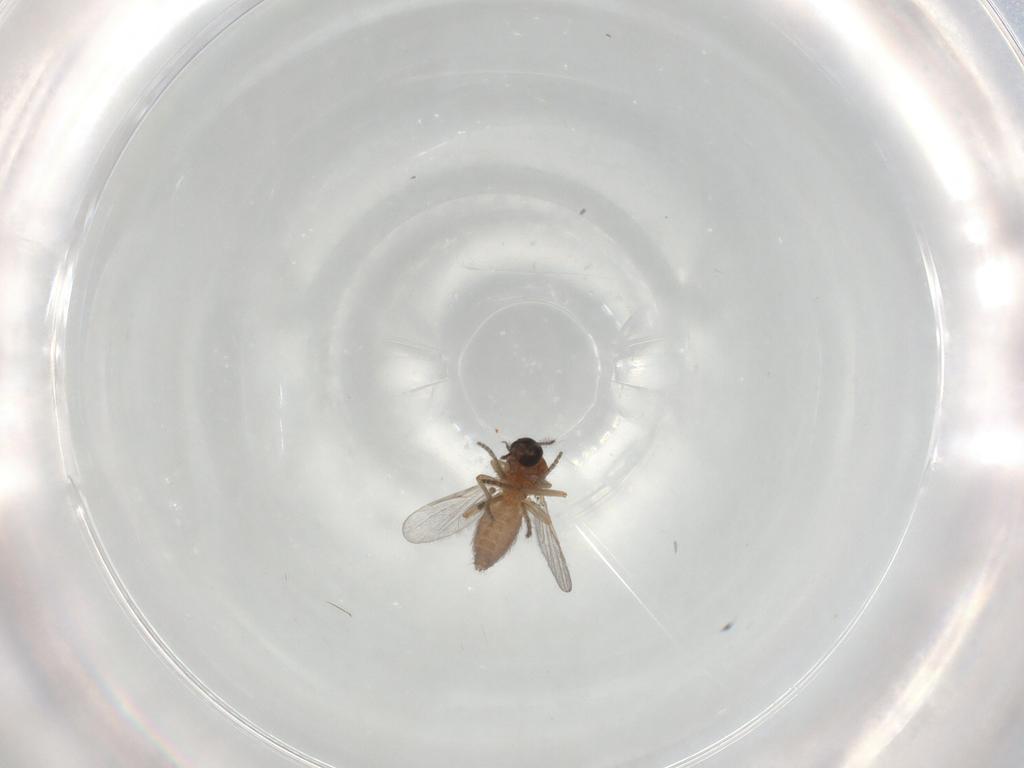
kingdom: Animalia
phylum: Arthropoda
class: Insecta
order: Diptera
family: Ceratopogonidae
